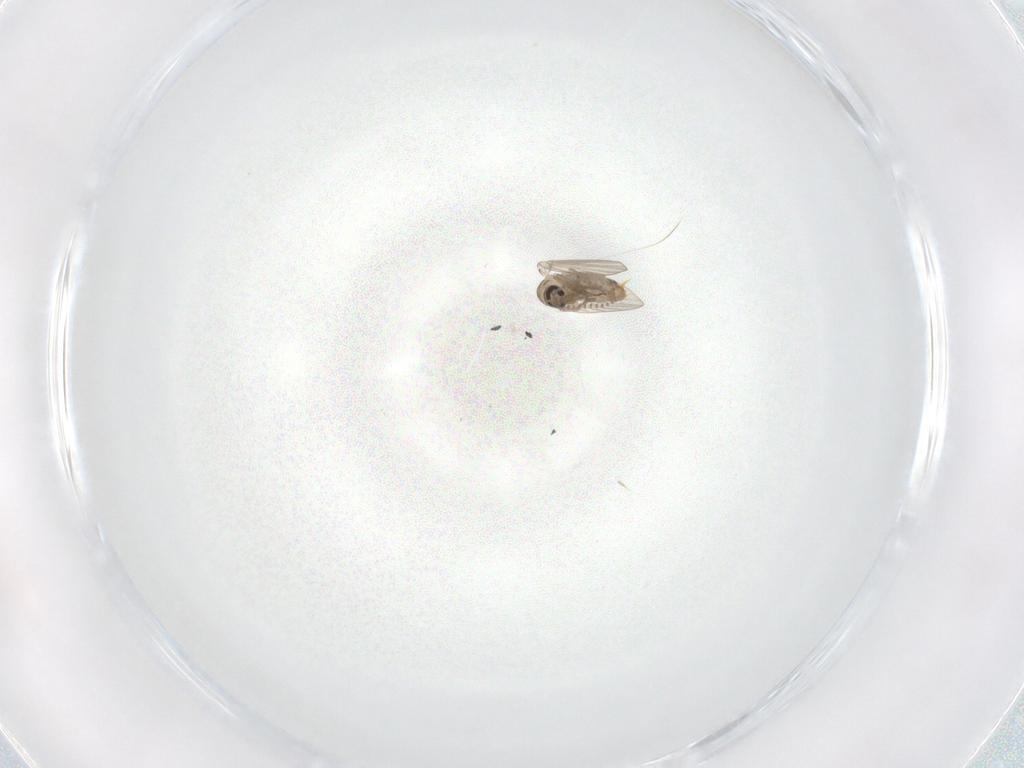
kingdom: Animalia
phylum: Arthropoda
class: Insecta
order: Diptera
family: Psychodidae
